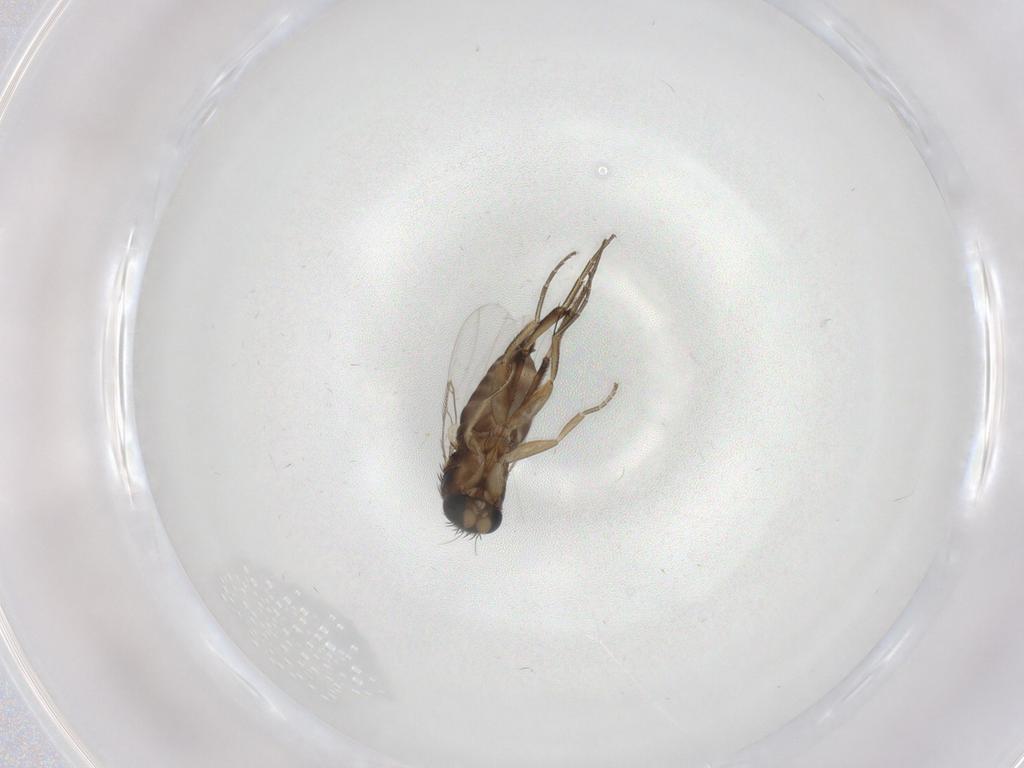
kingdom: Animalia
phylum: Arthropoda
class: Insecta
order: Diptera
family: Phoridae
